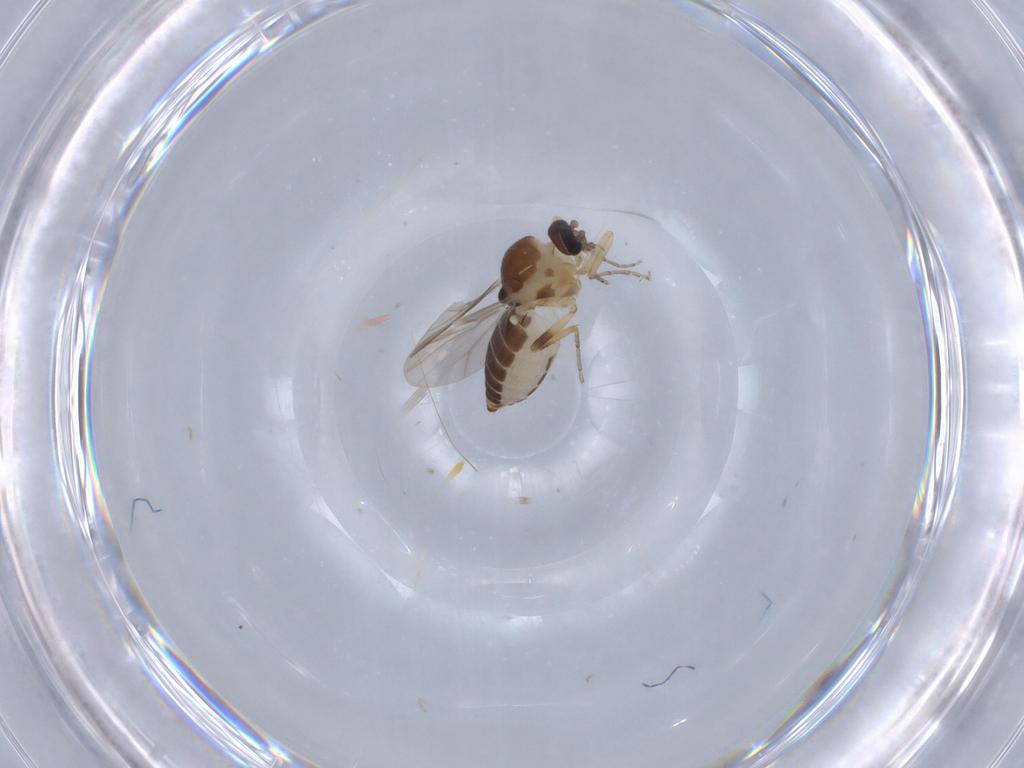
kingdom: Animalia
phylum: Arthropoda
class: Insecta
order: Diptera
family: Ceratopogonidae
